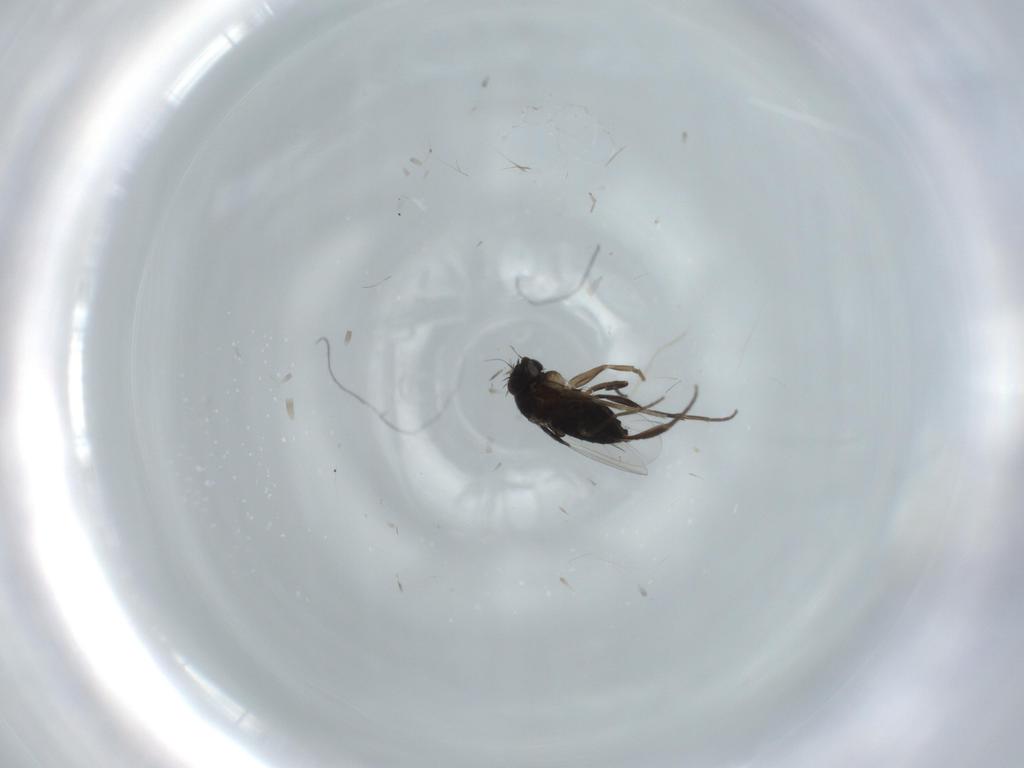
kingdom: Animalia
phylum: Arthropoda
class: Insecta
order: Diptera
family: Phoridae
